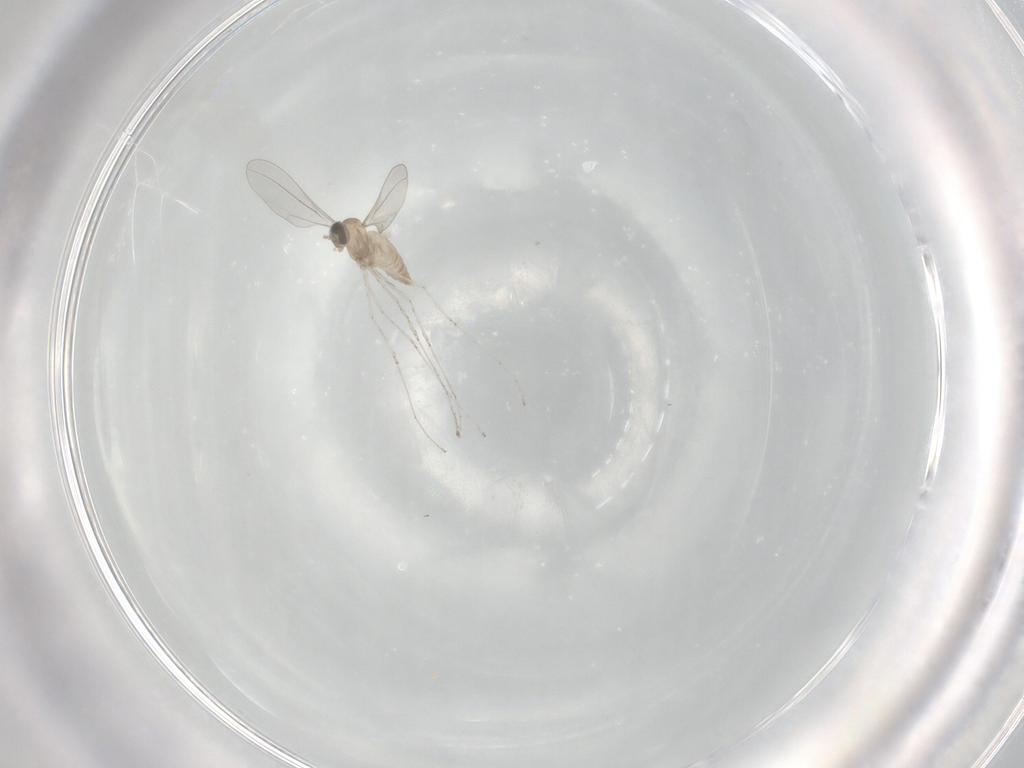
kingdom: Animalia
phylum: Arthropoda
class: Insecta
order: Diptera
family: Cecidomyiidae
